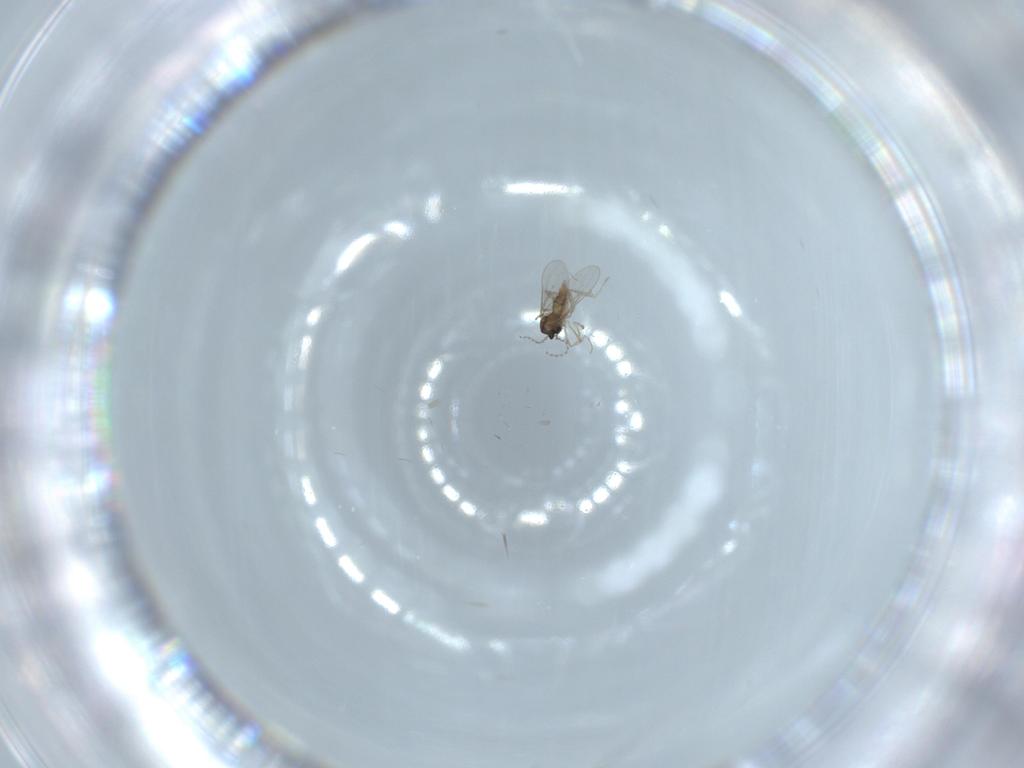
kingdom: Animalia
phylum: Arthropoda
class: Insecta
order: Diptera
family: Cecidomyiidae
